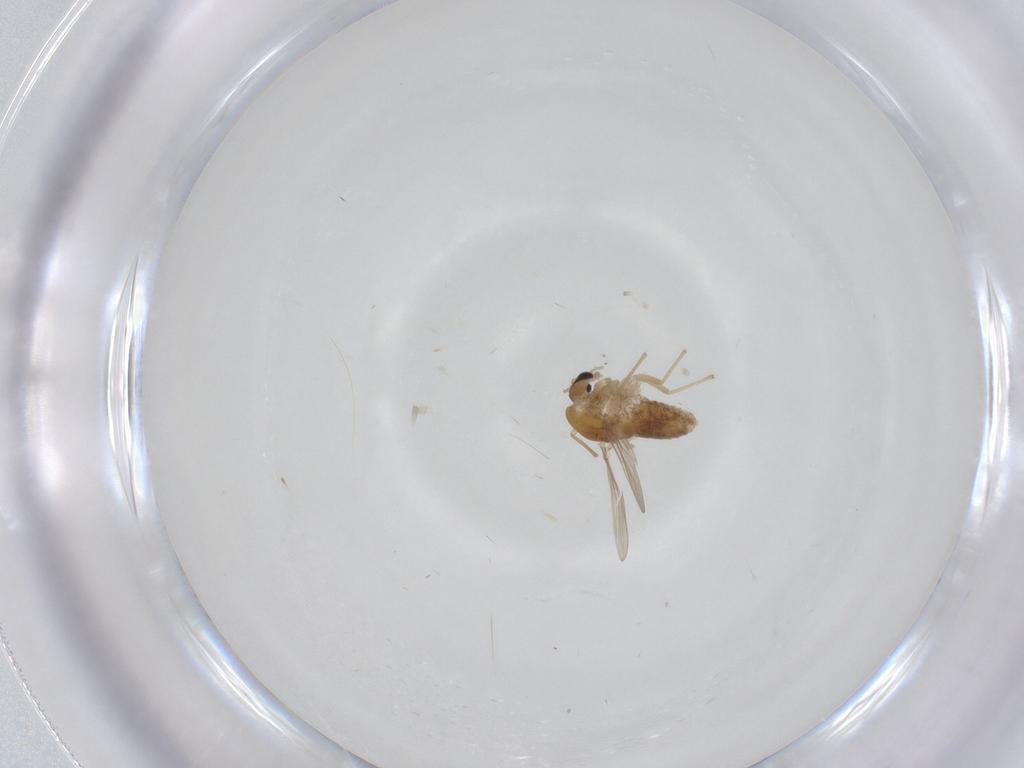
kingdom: Animalia
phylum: Arthropoda
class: Insecta
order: Diptera
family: Chironomidae
